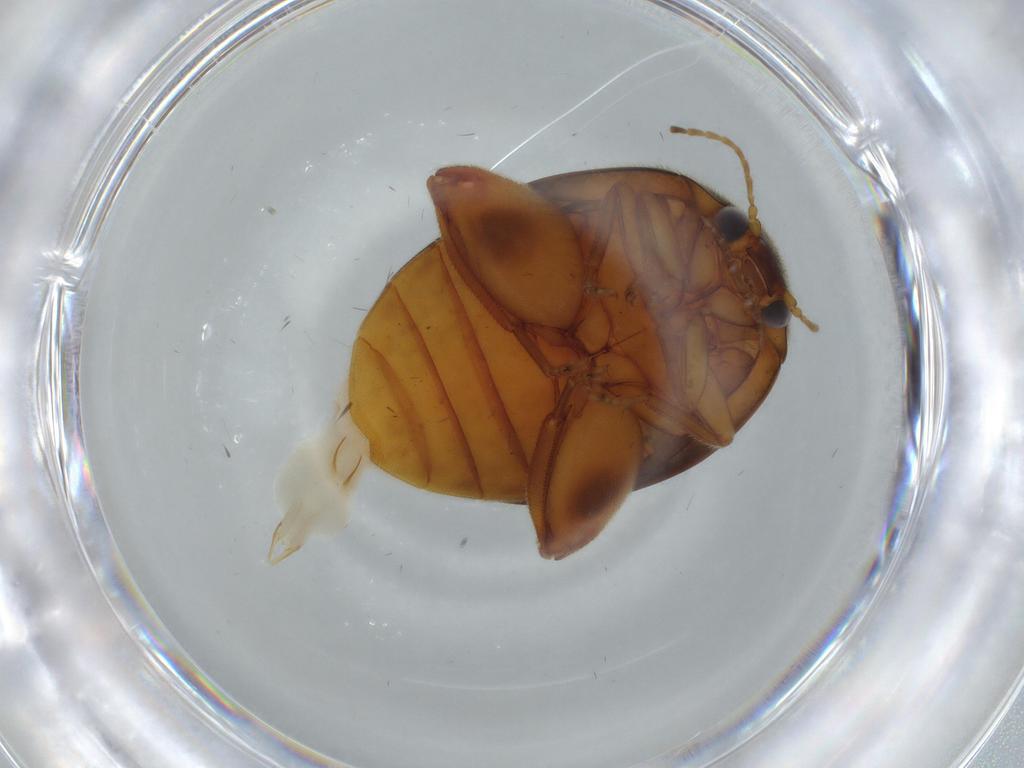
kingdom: Animalia
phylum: Arthropoda
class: Insecta
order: Coleoptera
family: Scirtidae
